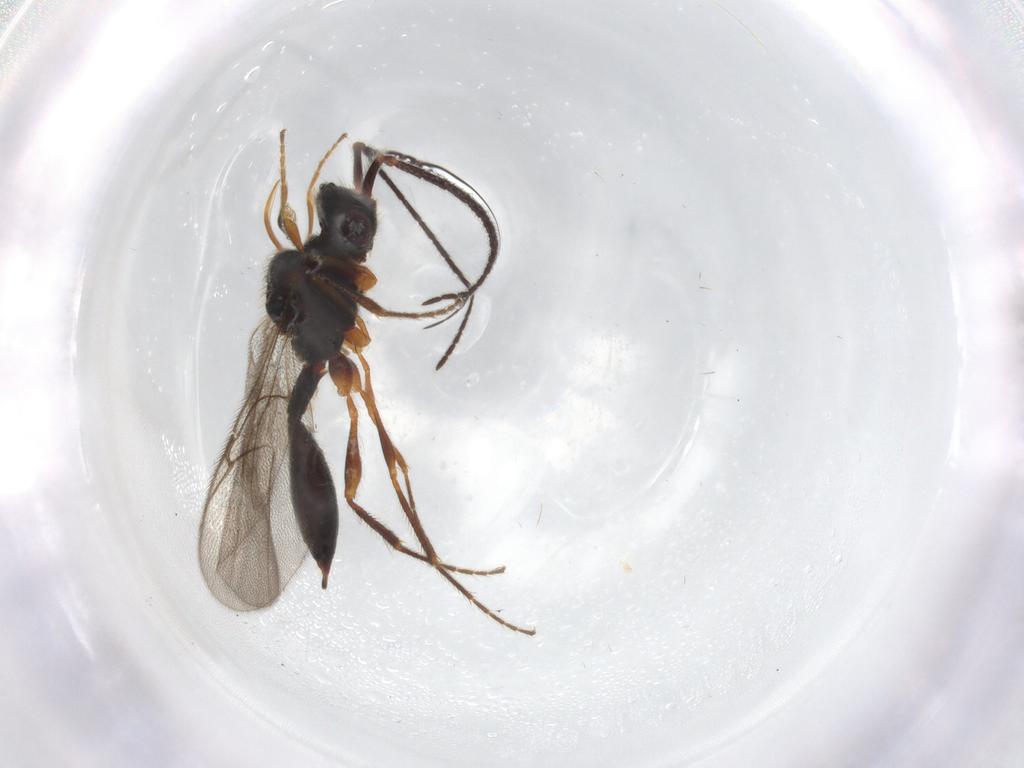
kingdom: Animalia
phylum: Arthropoda
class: Insecta
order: Hymenoptera
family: Diapriidae
